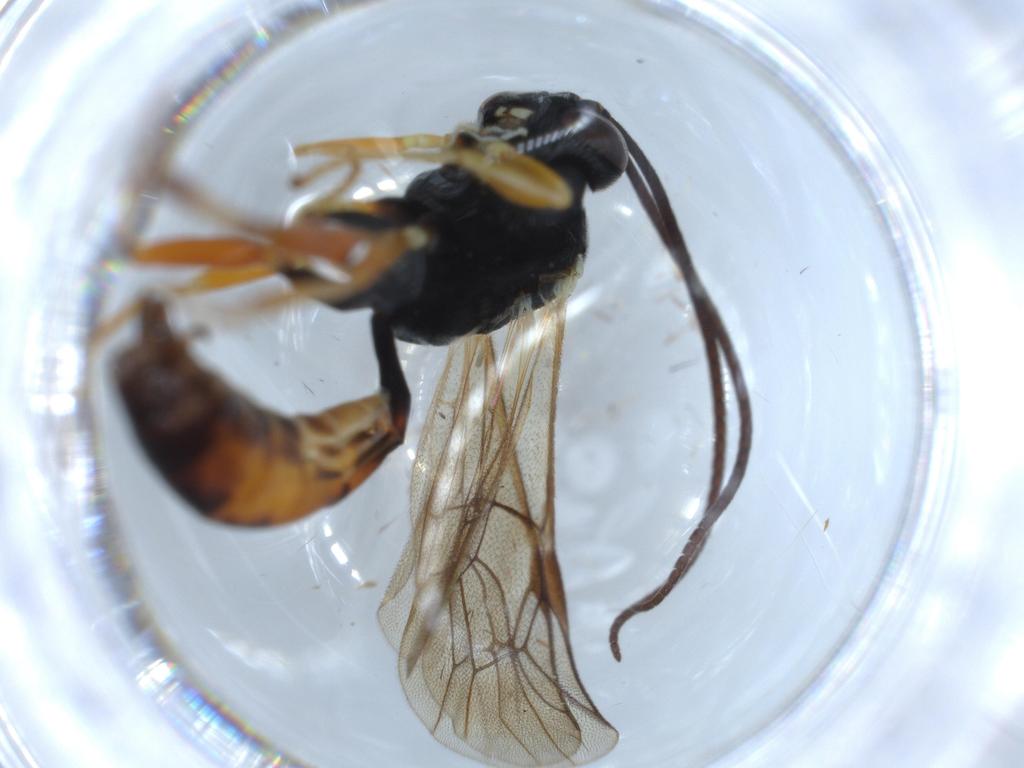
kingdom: Animalia
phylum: Arthropoda
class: Insecta
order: Hymenoptera
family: Ichneumonidae
